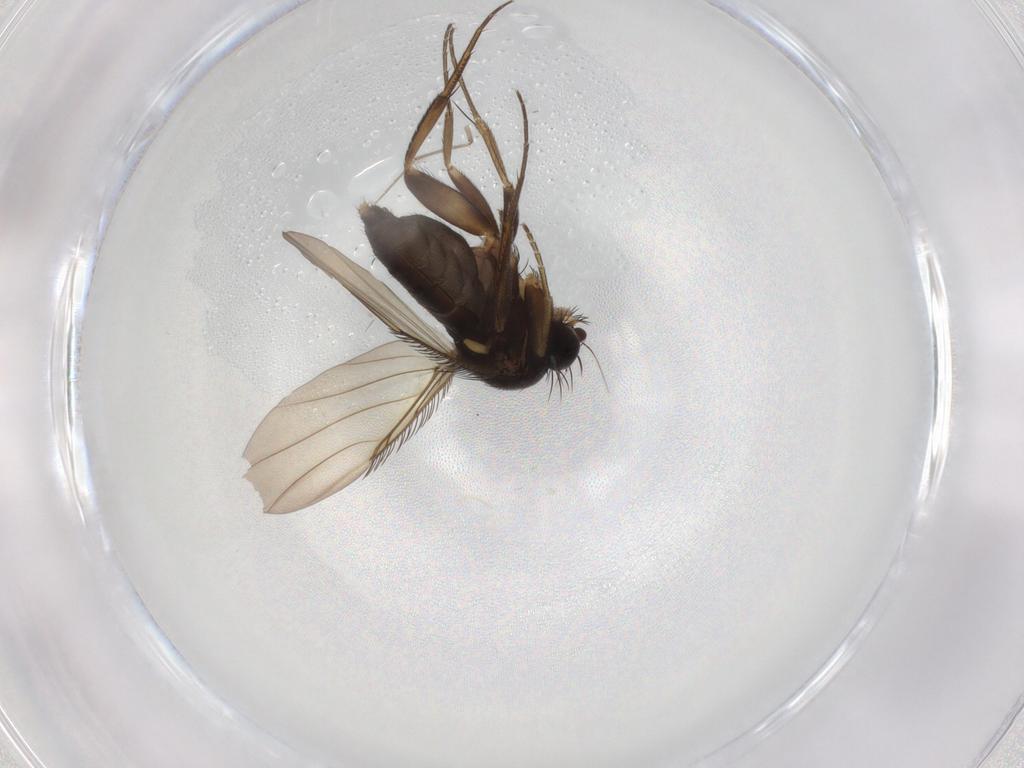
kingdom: Animalia
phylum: Arthropoda
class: Insecta
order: Diptera
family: Phoridae
